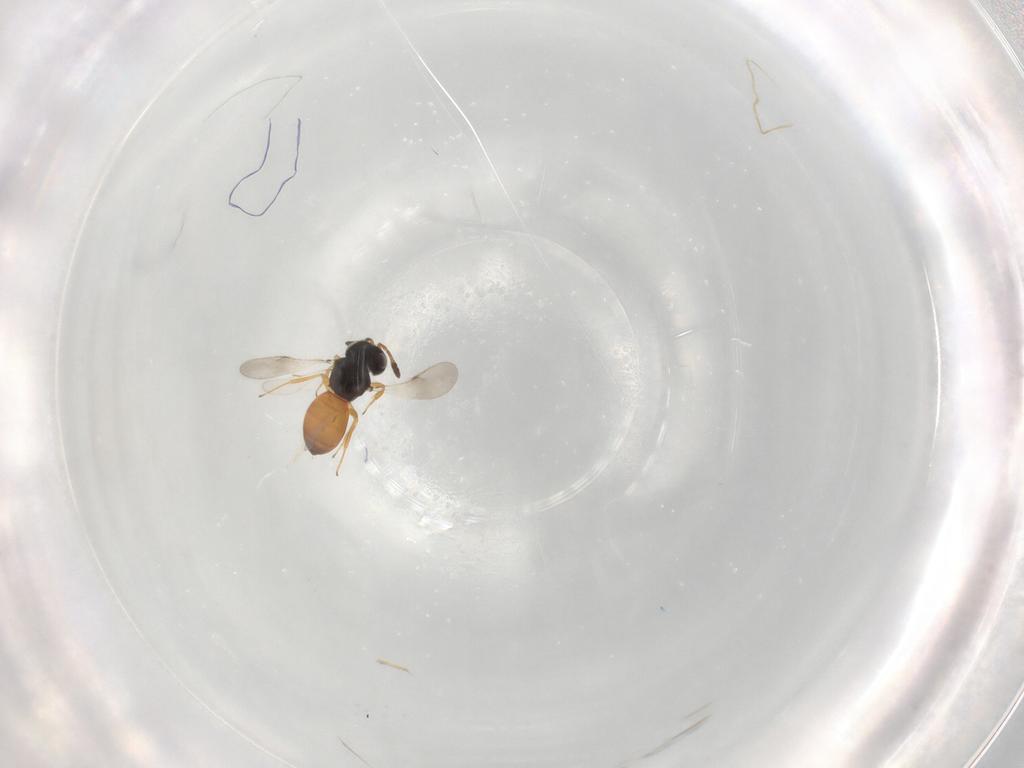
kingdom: Animalia
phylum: Arthropoda
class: Insecta
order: Hymenoptera
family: Scelionidae
